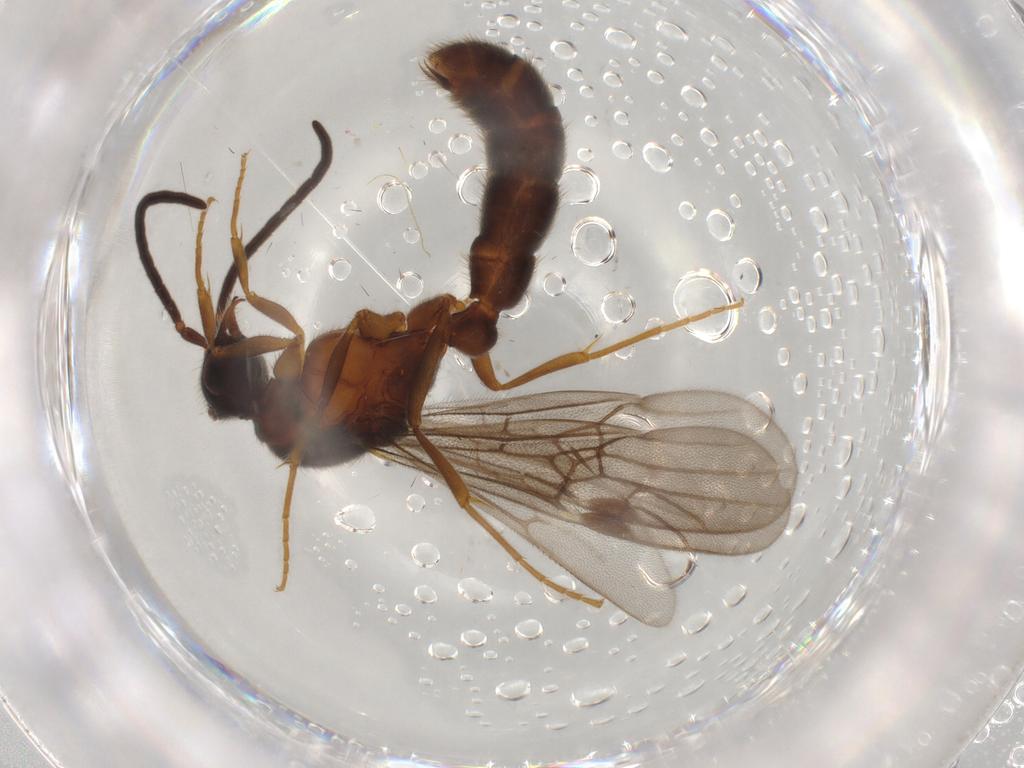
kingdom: Animalia
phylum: Arthropoda
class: Insecta
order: Hymenoptera
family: Formicidae
